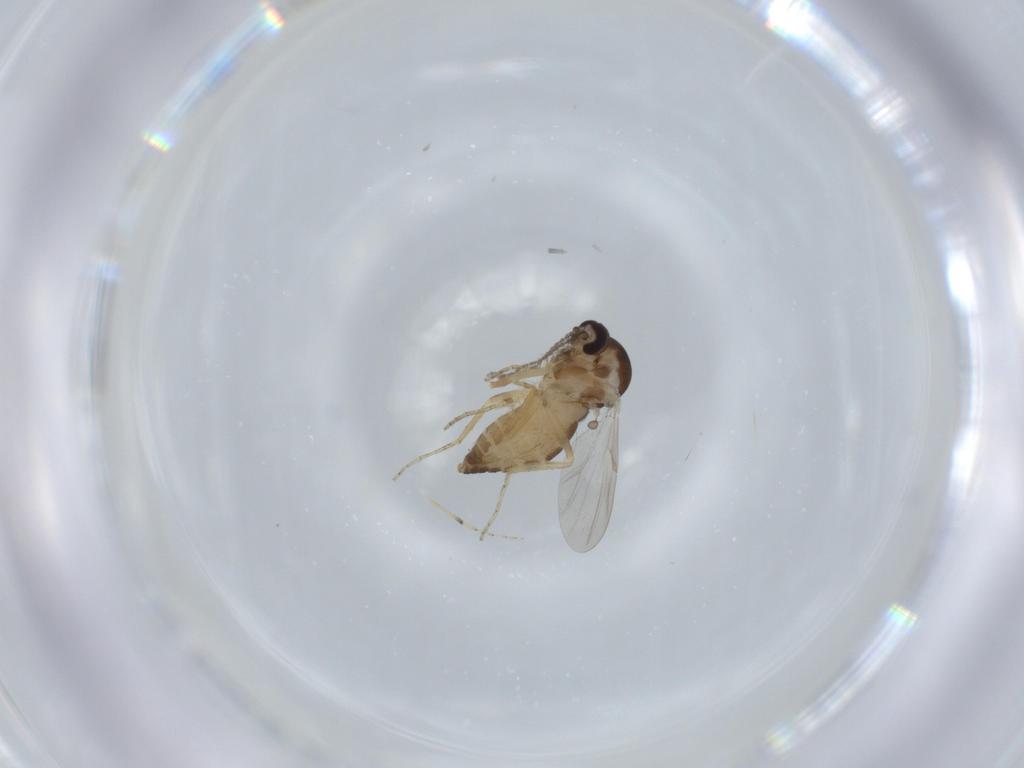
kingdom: Animalia
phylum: Arthropoda
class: Insecta
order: Diptera
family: Ceratopogonidae
